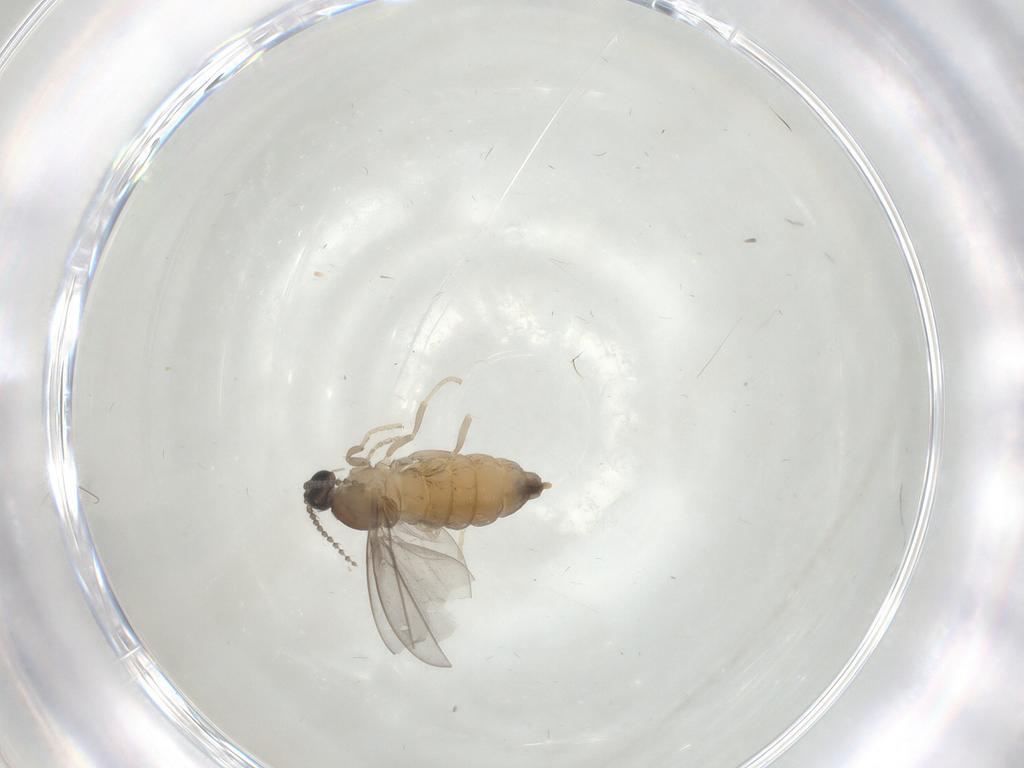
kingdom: Animalia
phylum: Arthropoda
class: Insecta
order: Diptera
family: Cecidomyiidae
